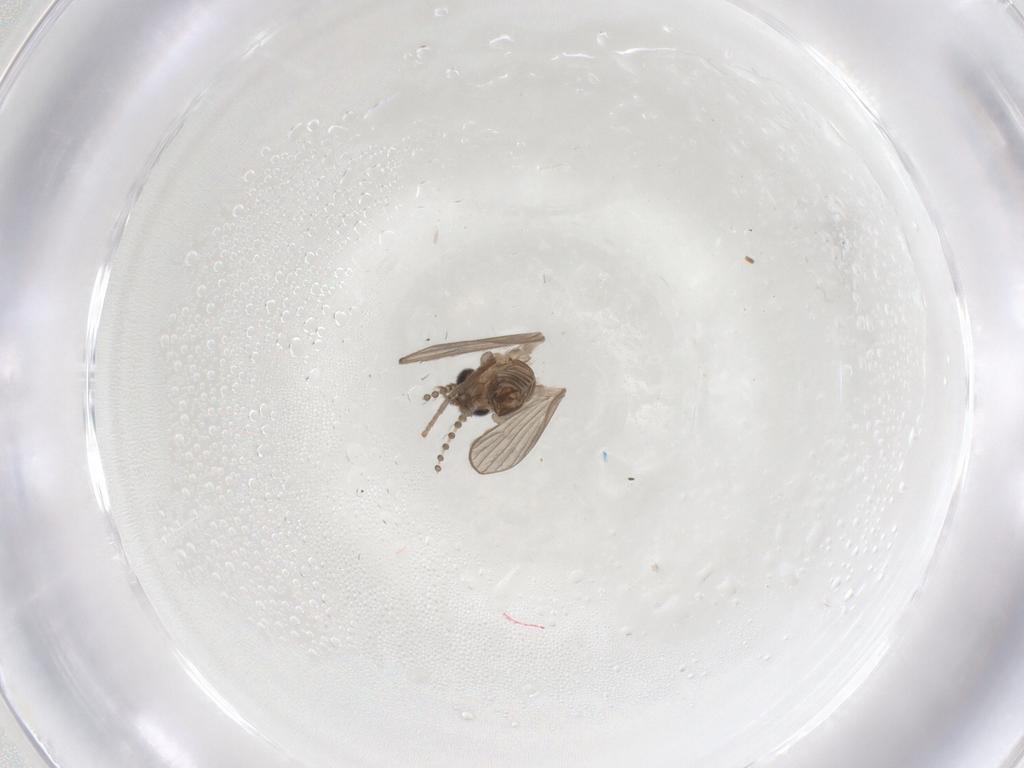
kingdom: Animalia
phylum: Arthropoda
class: Insecta
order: Diptera
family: Psychodidae
